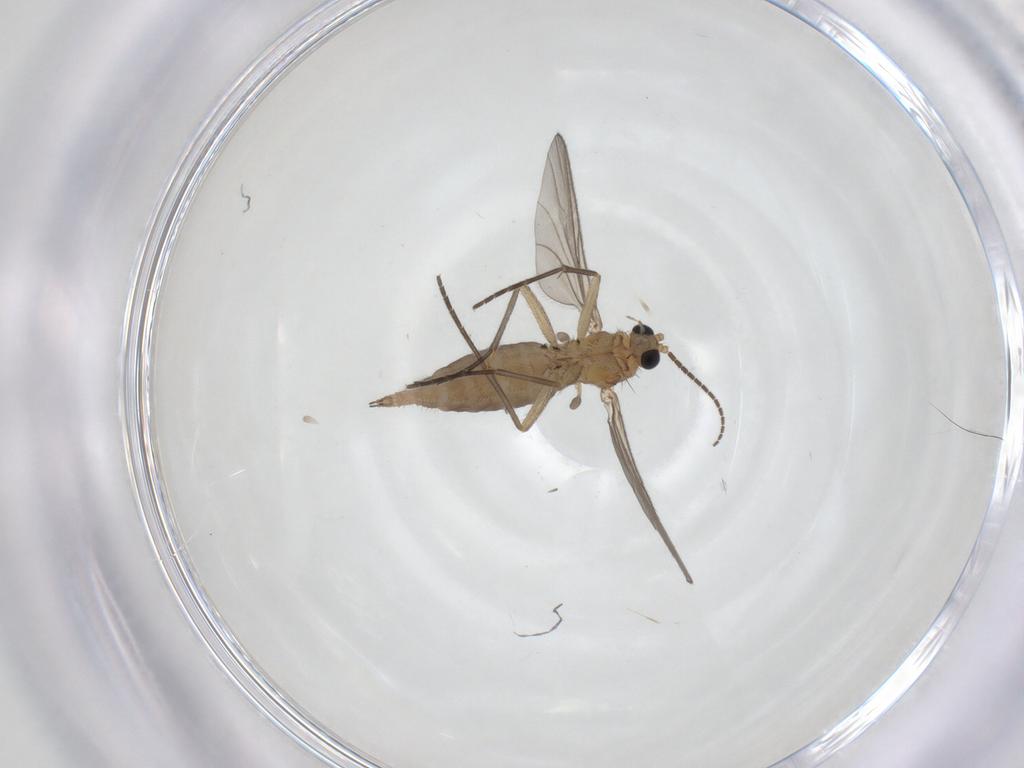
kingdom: Animalia
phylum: Arthropoda
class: Insecta
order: Diptera
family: Sciaridae
